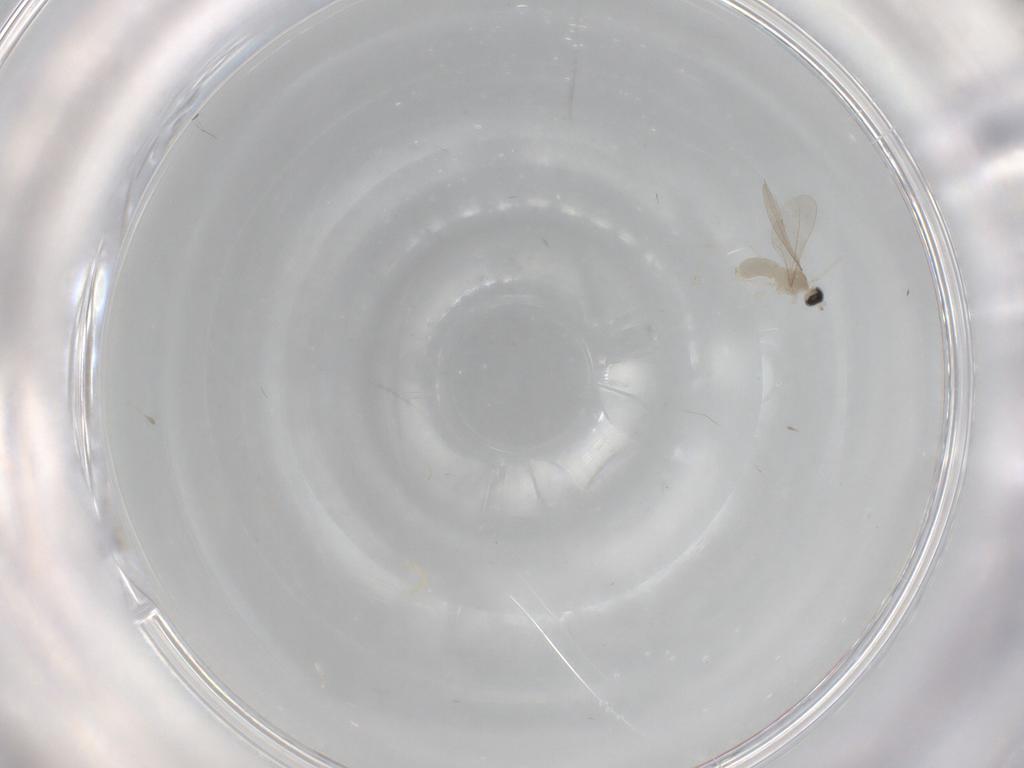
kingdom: Animalia
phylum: Arthropoda
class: Insecta
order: Diptera
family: Cecidomyiidae
